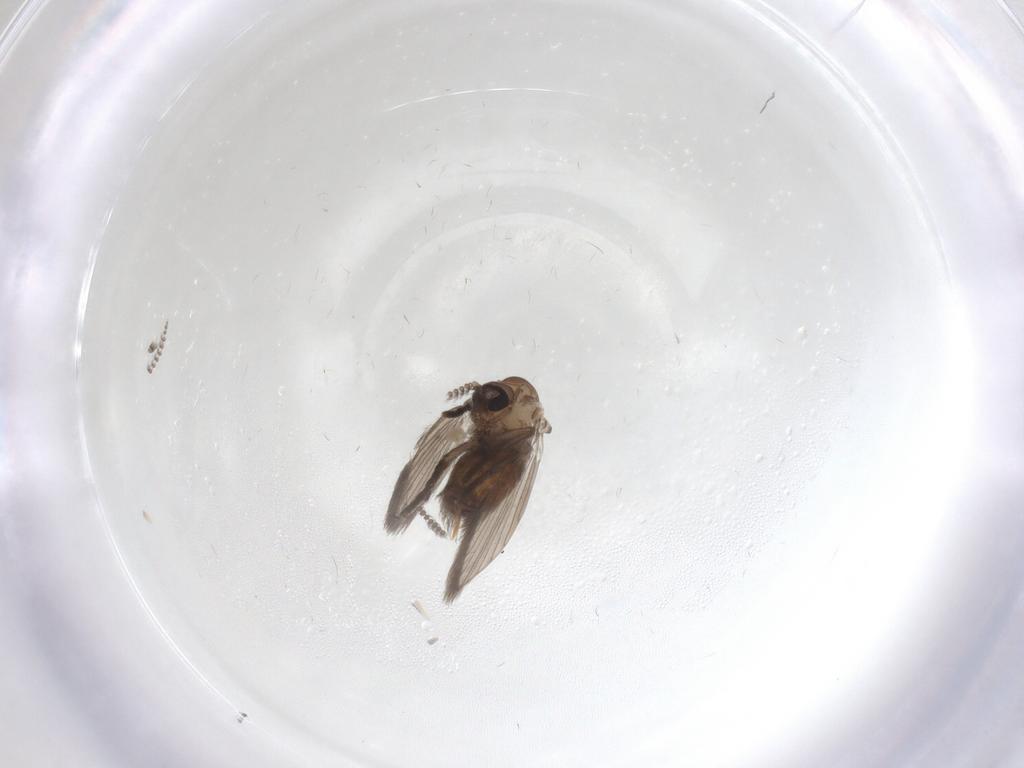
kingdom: Animalia
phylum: Arthropoda
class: Insecta
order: Diptera
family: Psychodidae
